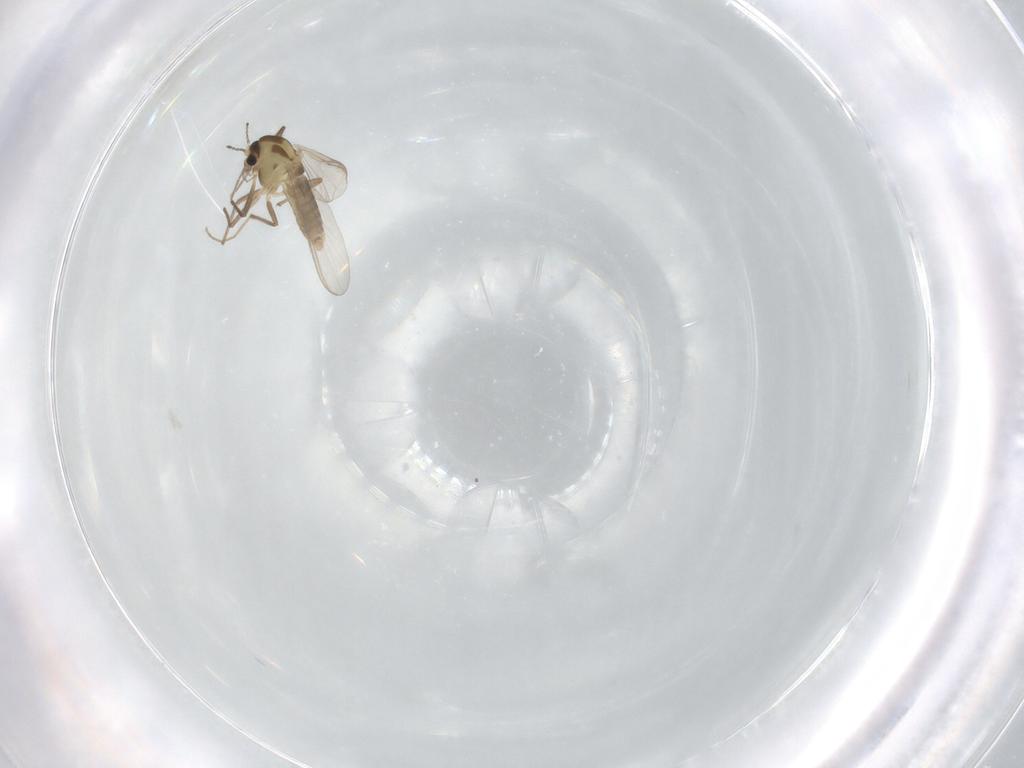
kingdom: Animalia
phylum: Arthropoda
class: Insecta
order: Diptera
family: Chironomidae
